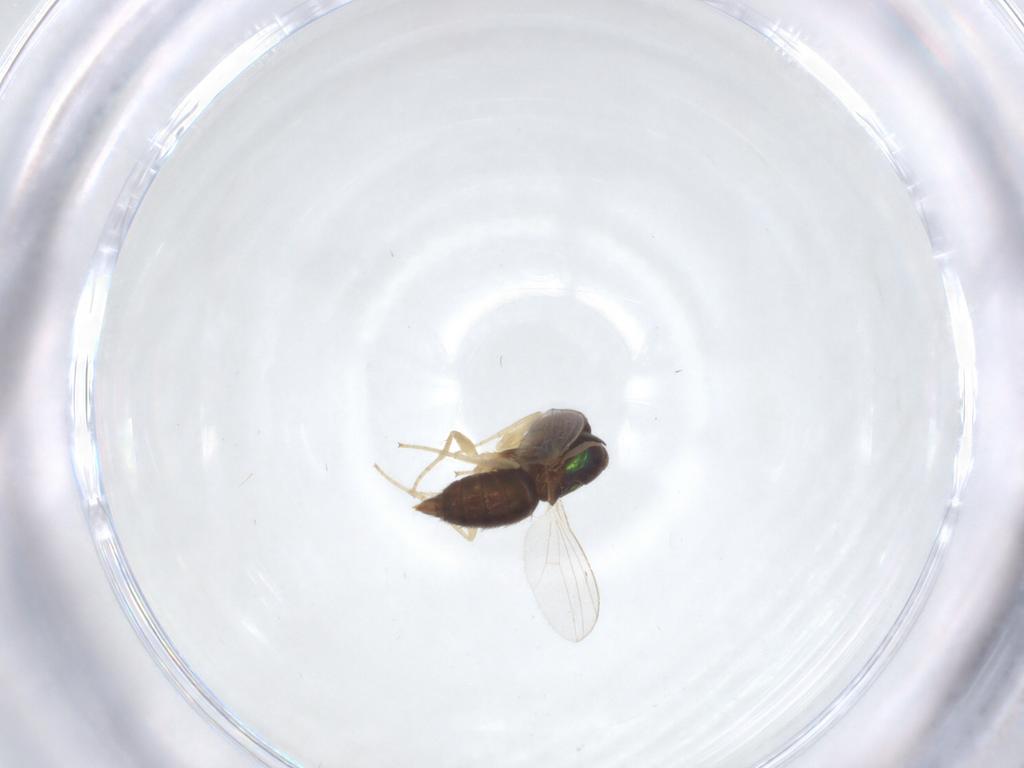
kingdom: Animalia
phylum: Arthropoda
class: Insecta
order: Diptera
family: Dolichopodidae
